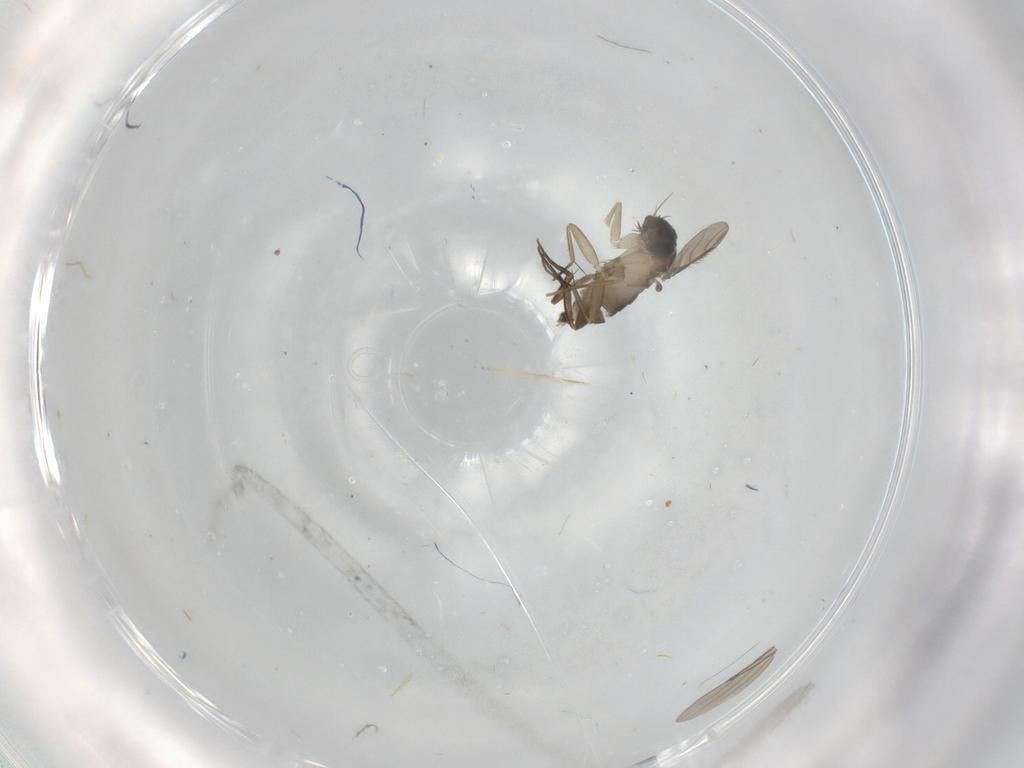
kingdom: Animalia
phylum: Arthropoda
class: Insecta
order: Diptera
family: Phoridae
